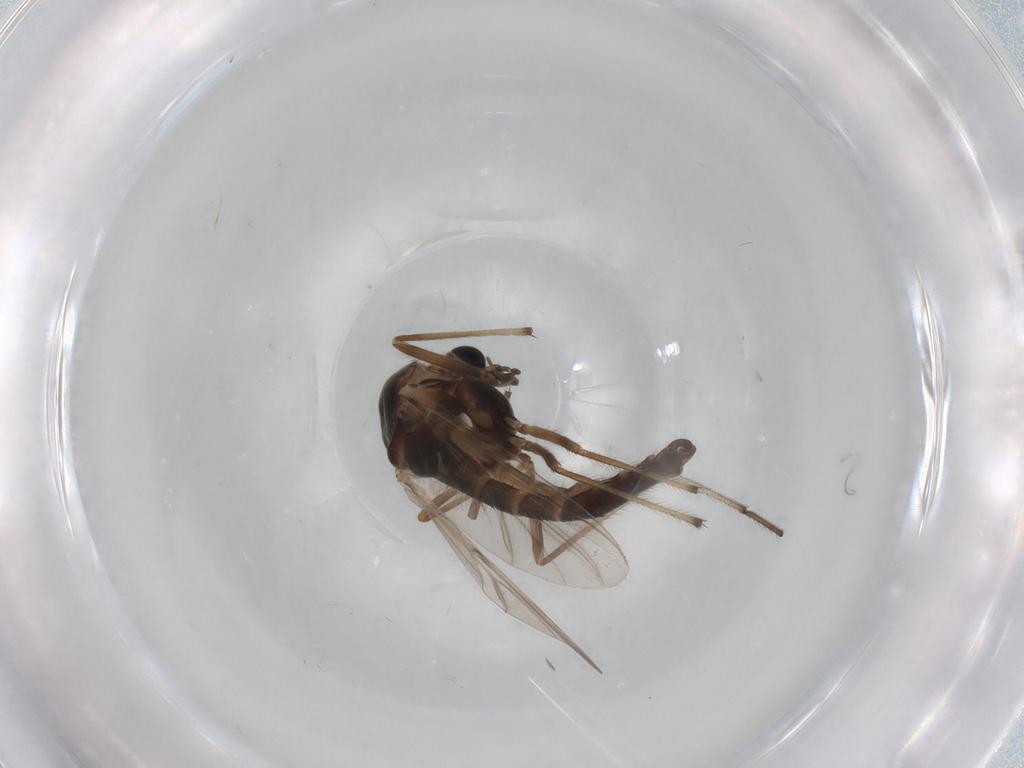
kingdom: Animalia
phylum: Arthropoda
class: Insecta
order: Diptera
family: Chironomidae
